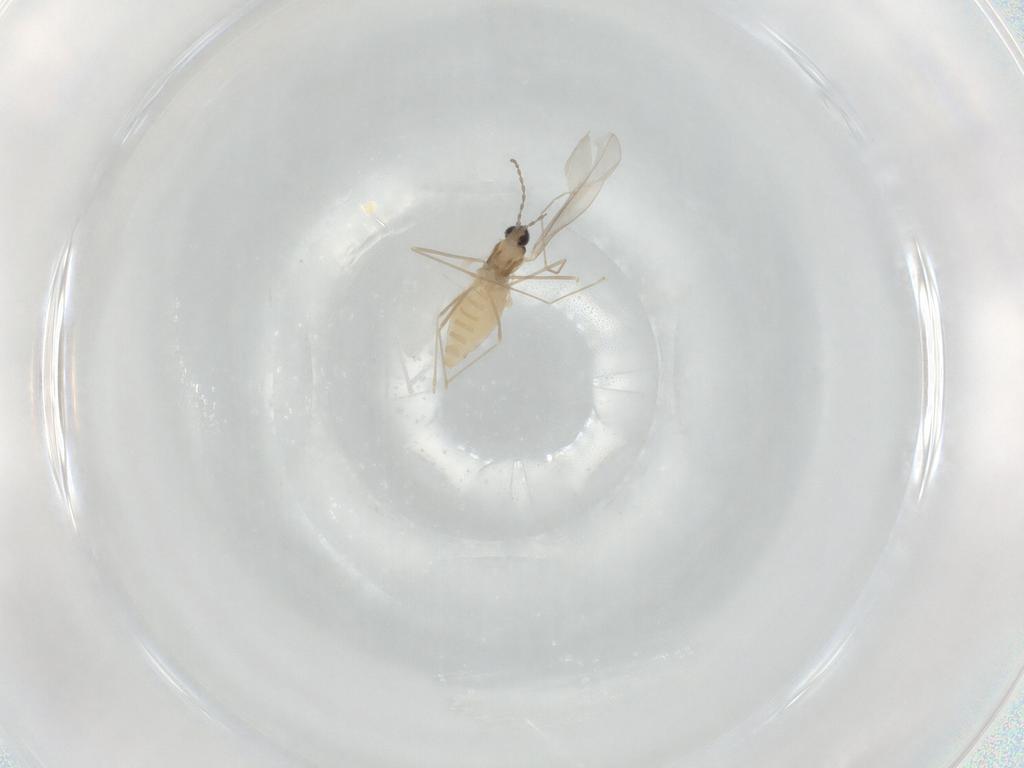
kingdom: Animalia
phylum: Arthropoda
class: Insecta
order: Diptera
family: Cecidomyiidae
